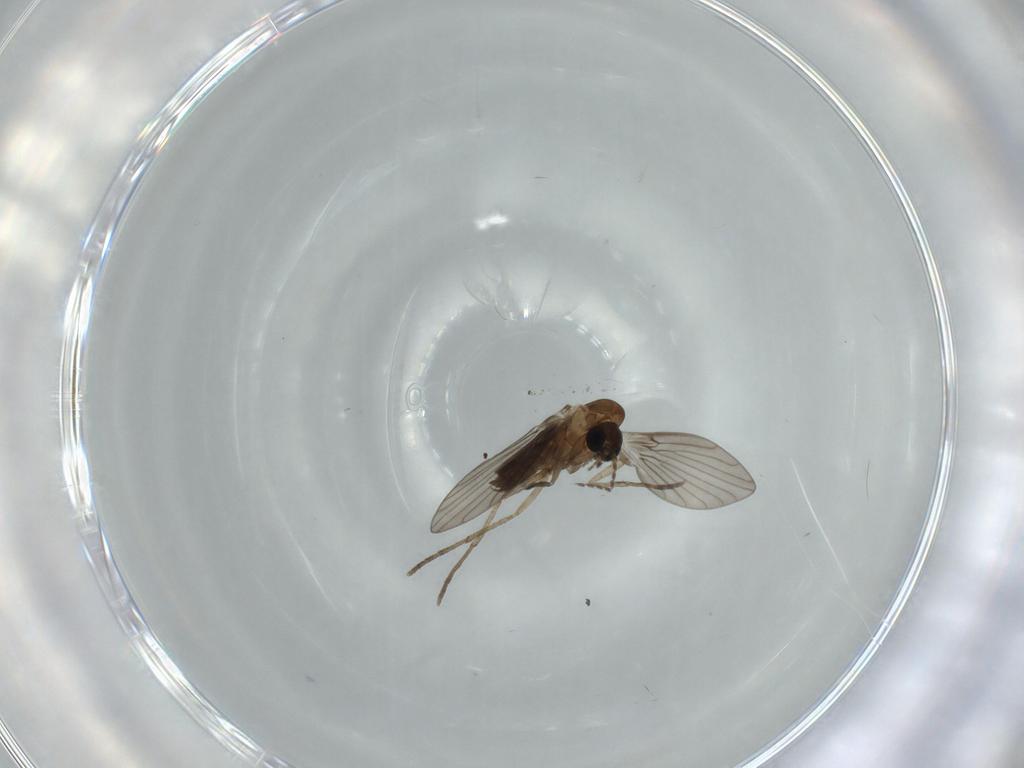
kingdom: Animalia
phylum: Arthropoda
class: Insecta
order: Diptera
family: Psychodidae
